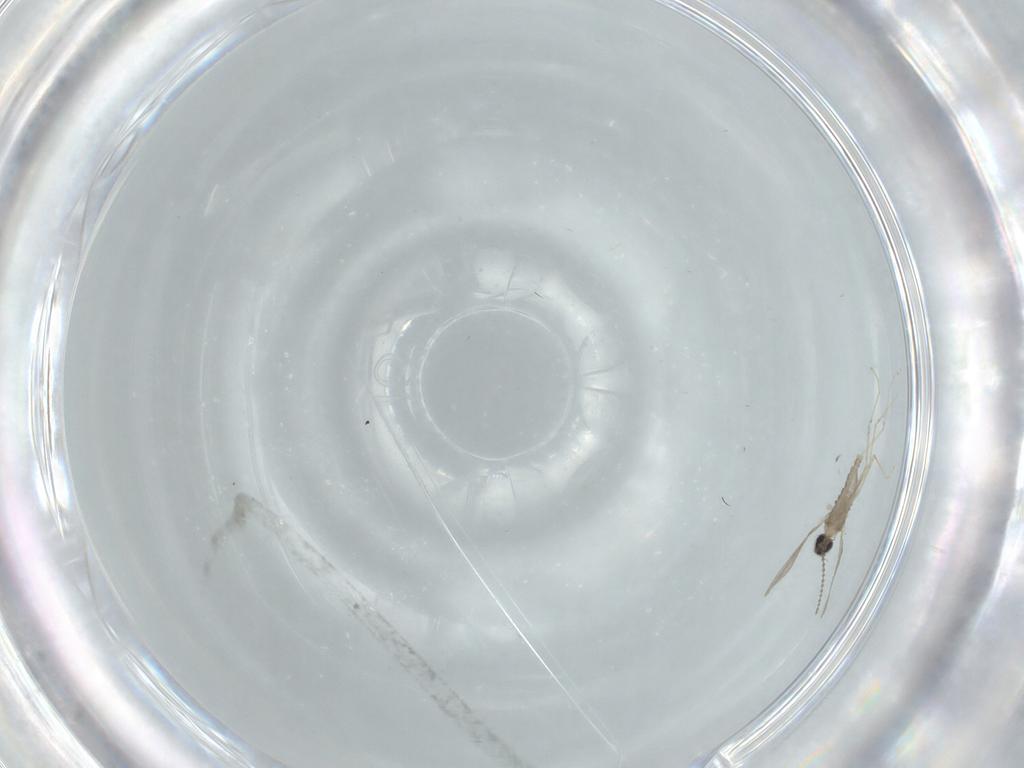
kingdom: Animalia
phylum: Arthropoda
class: Insecta
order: Diptera
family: Cecidomyiidae
